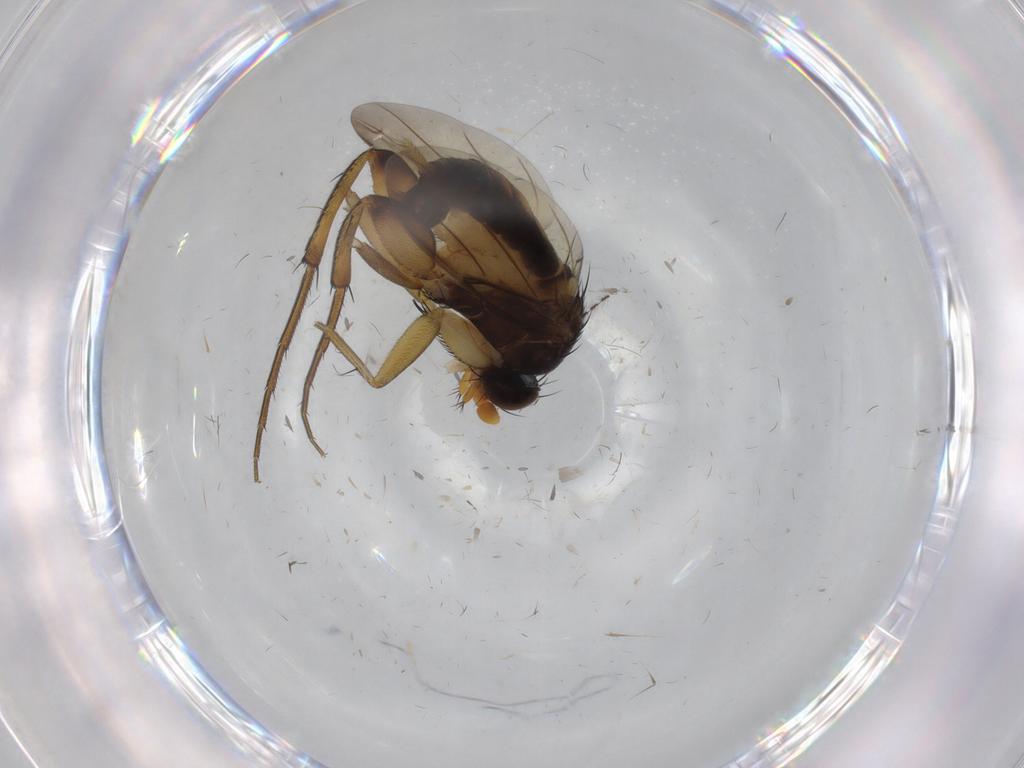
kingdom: Animalia
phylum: Arthropoda
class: Insecta
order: Diptera
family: Phoridae
